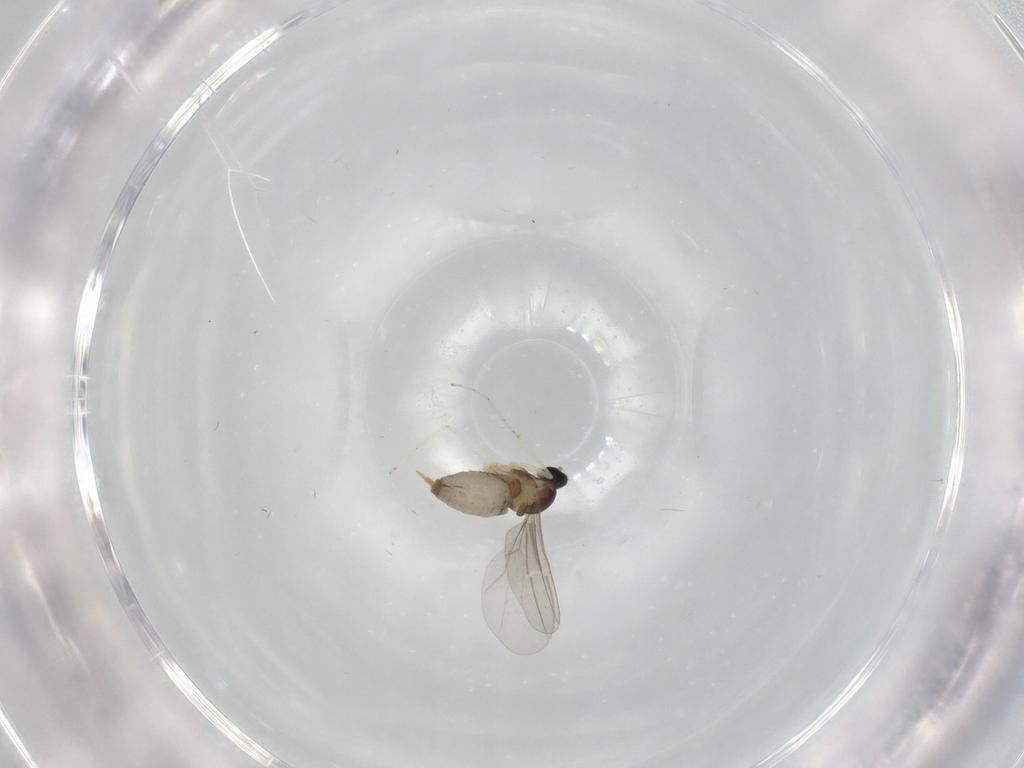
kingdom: Animalia
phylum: Arthropoda
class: Insecta
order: Diptera
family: Cecidomyiidae
